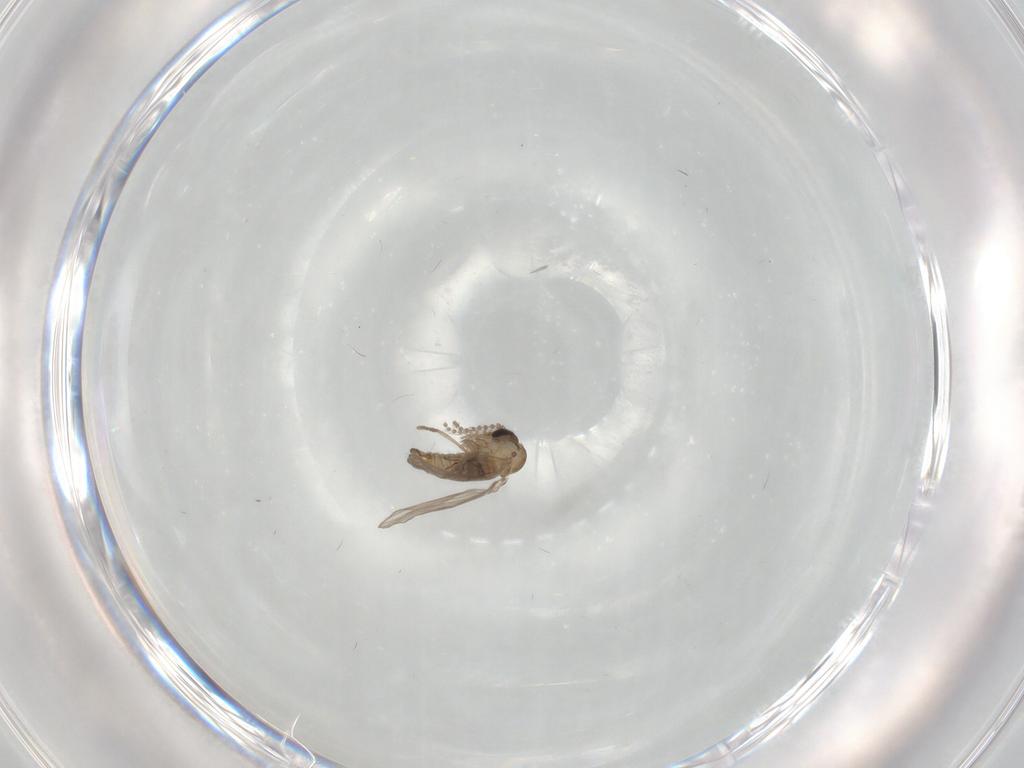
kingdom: Animalia
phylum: Arthropoda
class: Insecta
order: Diptera
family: Psychodidae
